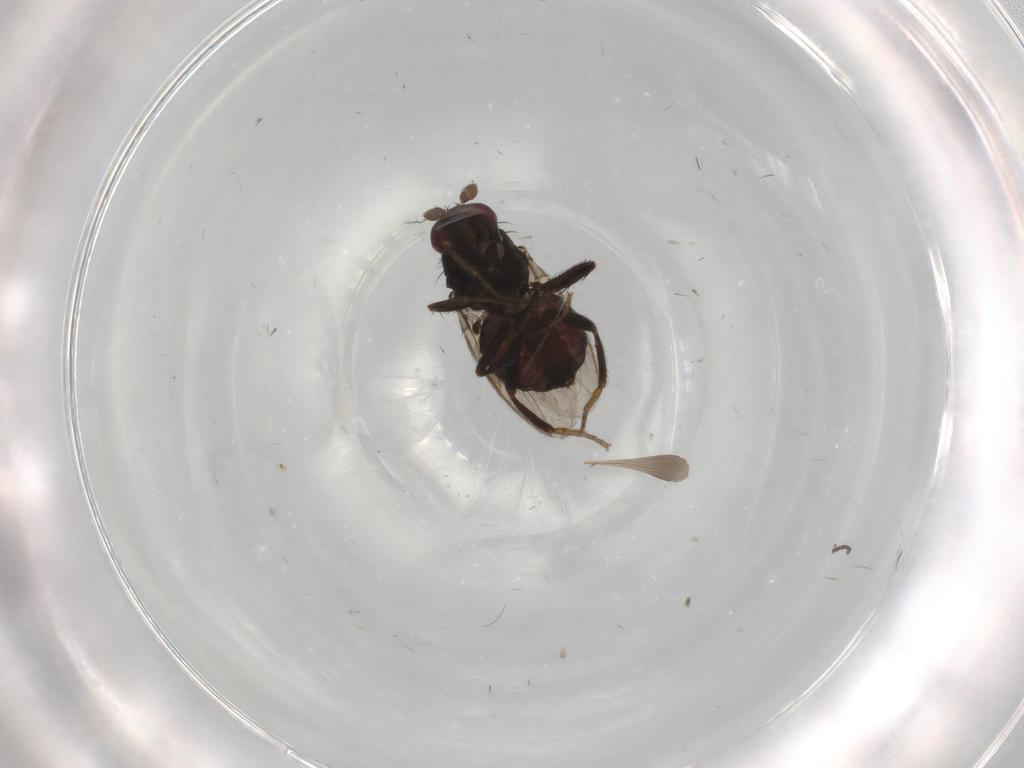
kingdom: Animalia
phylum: Arthropoda
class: Insecta
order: Diptera
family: Sphaeroceridae
